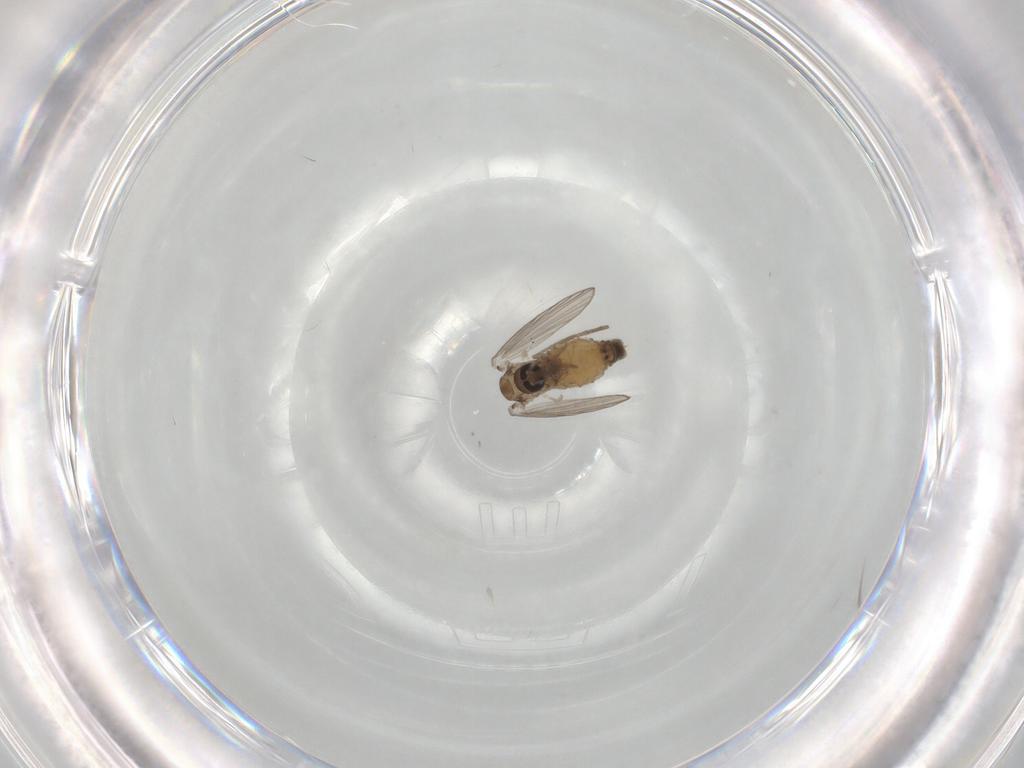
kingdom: Animalia
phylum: Arthropoda
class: Insecta
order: Diptera
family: Psychodidae
